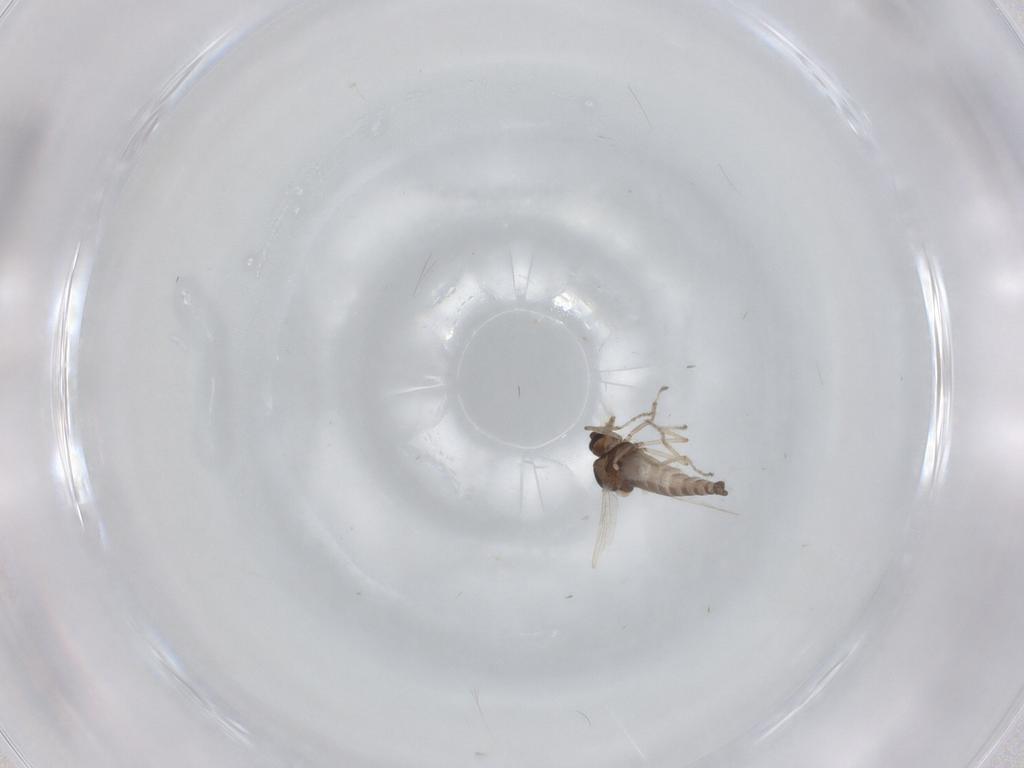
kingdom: Animalia
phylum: Arthropoda
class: Insecta
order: Diptera
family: Ceratopogonidae
